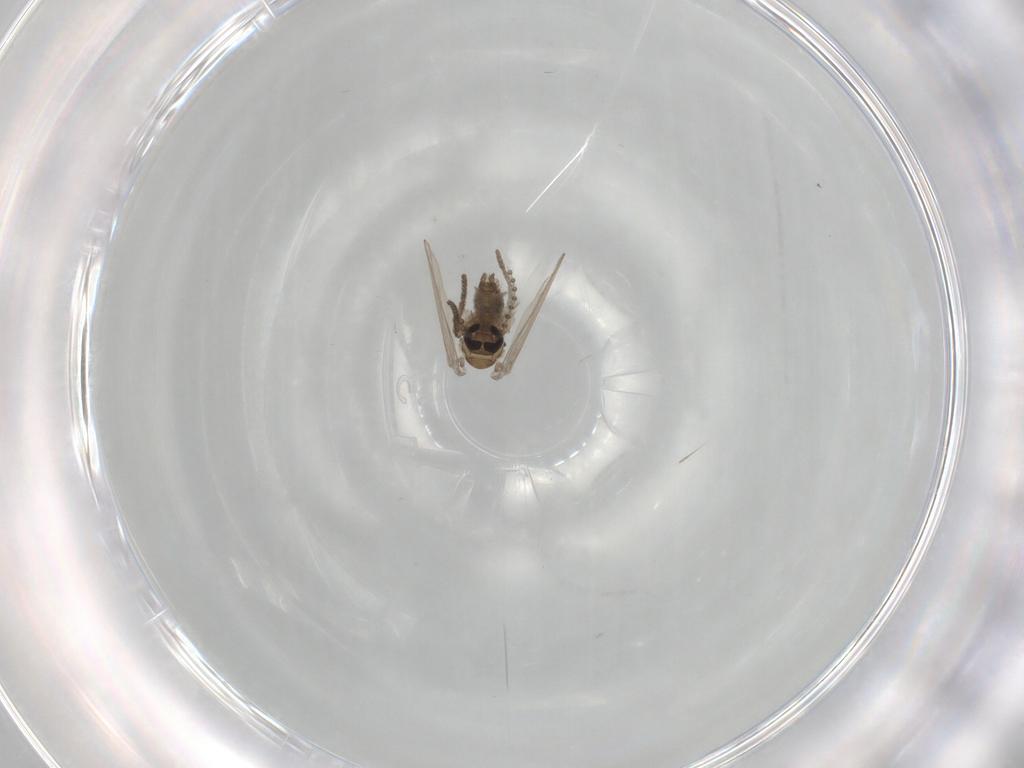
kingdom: Animalia
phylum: Arthropoda
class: Insecta
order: Diptera
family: Psychodidae
